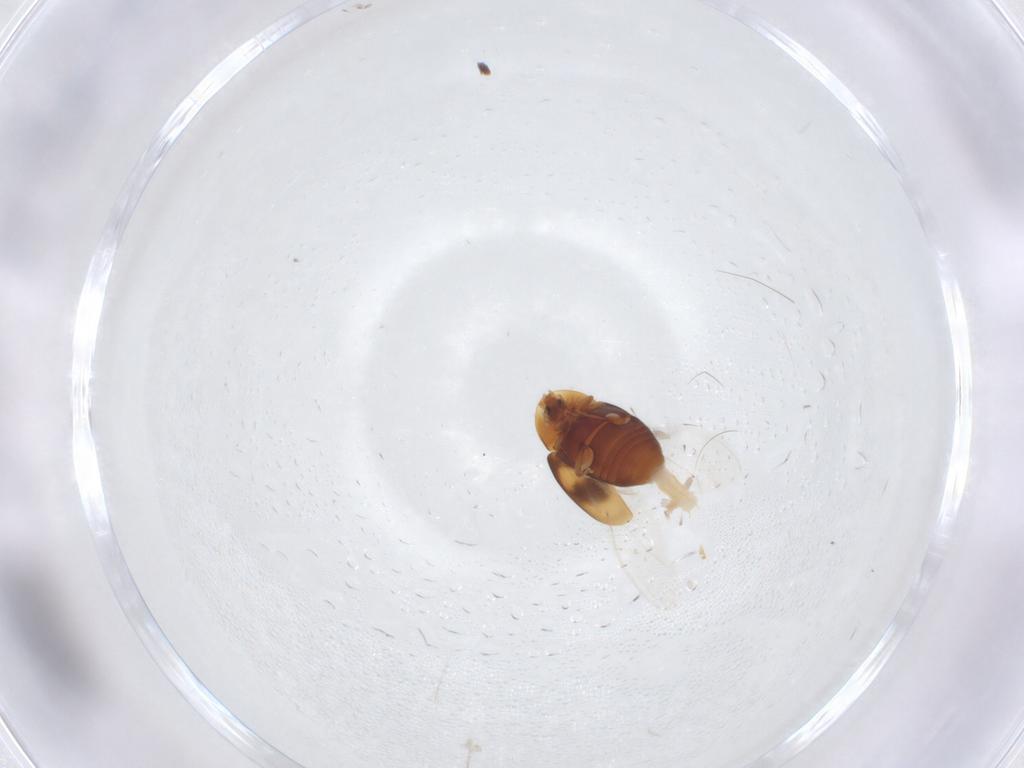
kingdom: Animalia
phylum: Arthropoda
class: Insecta
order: Coleoptera
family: Corylophidae
